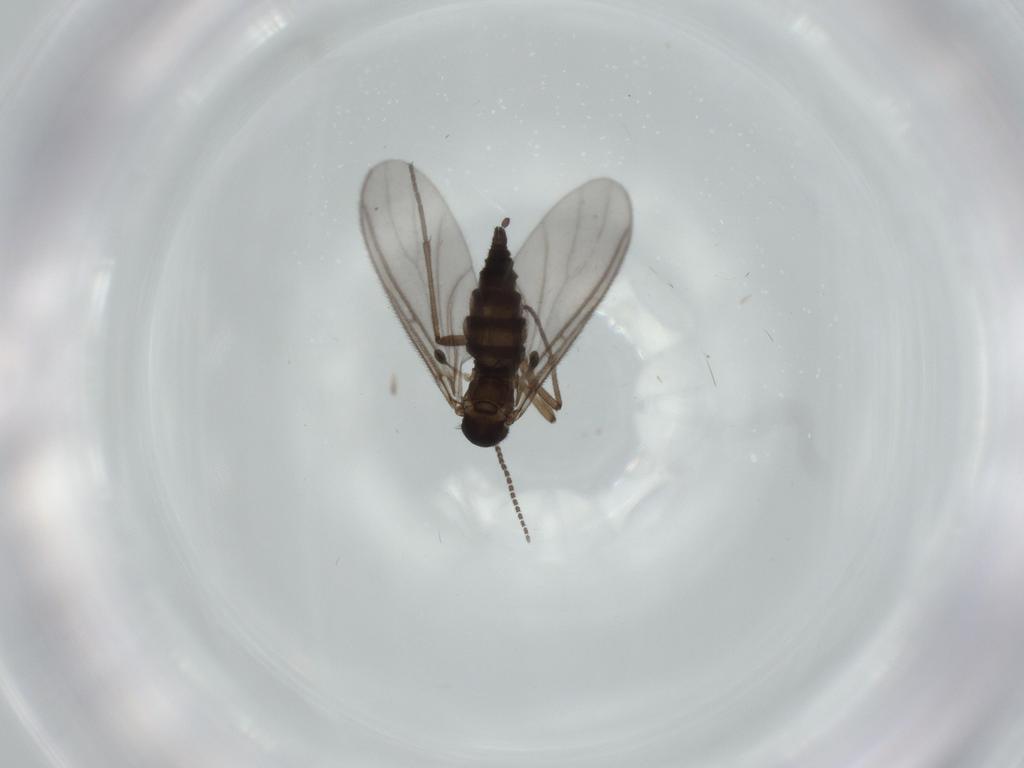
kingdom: Animalia
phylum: Arthropoda
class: Insecta
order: Diptera
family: Sciaridae
